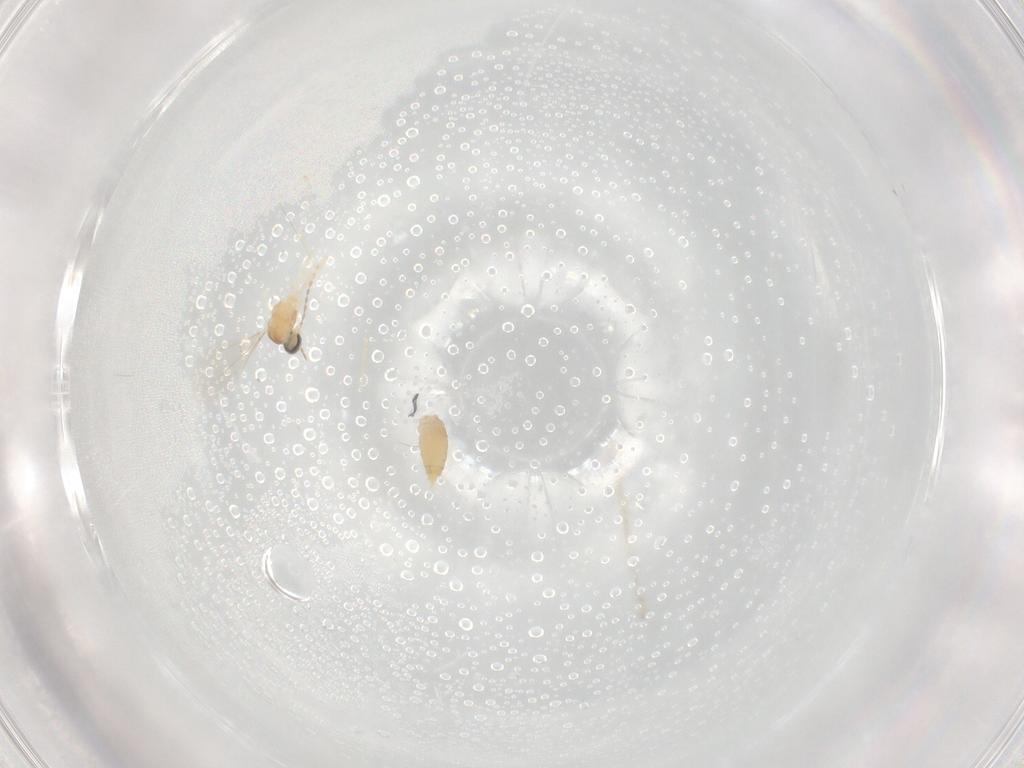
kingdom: Animalia
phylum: Arthropoda
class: Insecta
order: Diptera
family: Cecidomyiidae
